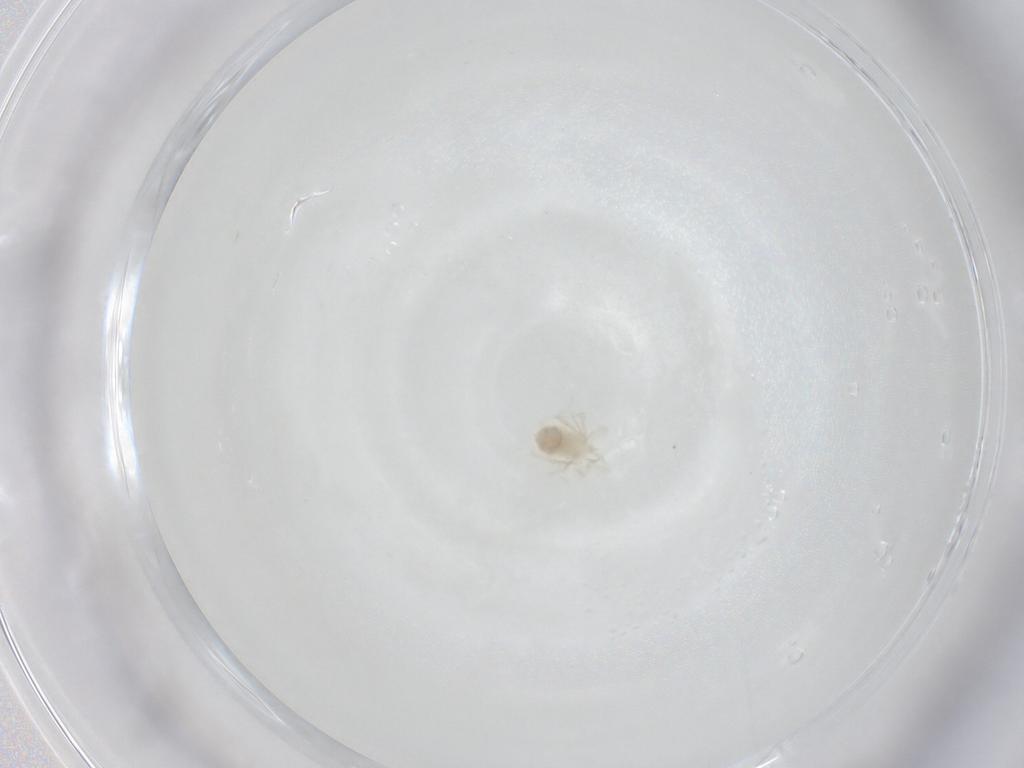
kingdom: Animalia
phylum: Arthropoda
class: Arachnida
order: Trombidiformes
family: Anystidae
